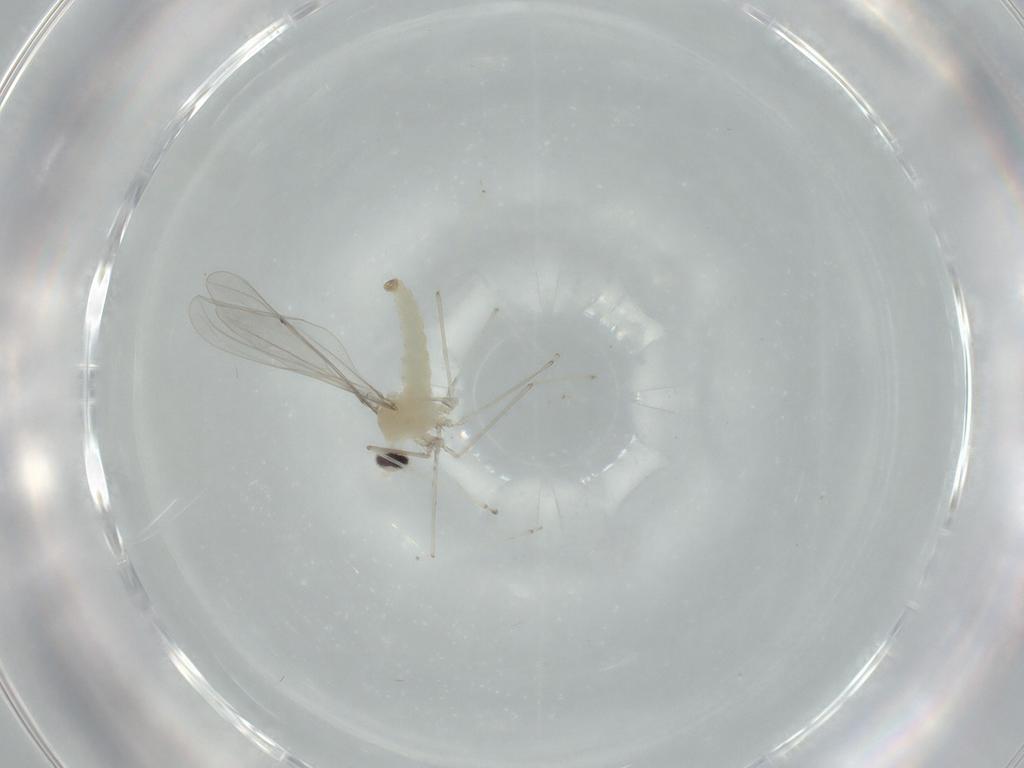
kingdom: Animalia
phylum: Arthropoda
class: Insecta
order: Diptera
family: Cecidomyiidae
